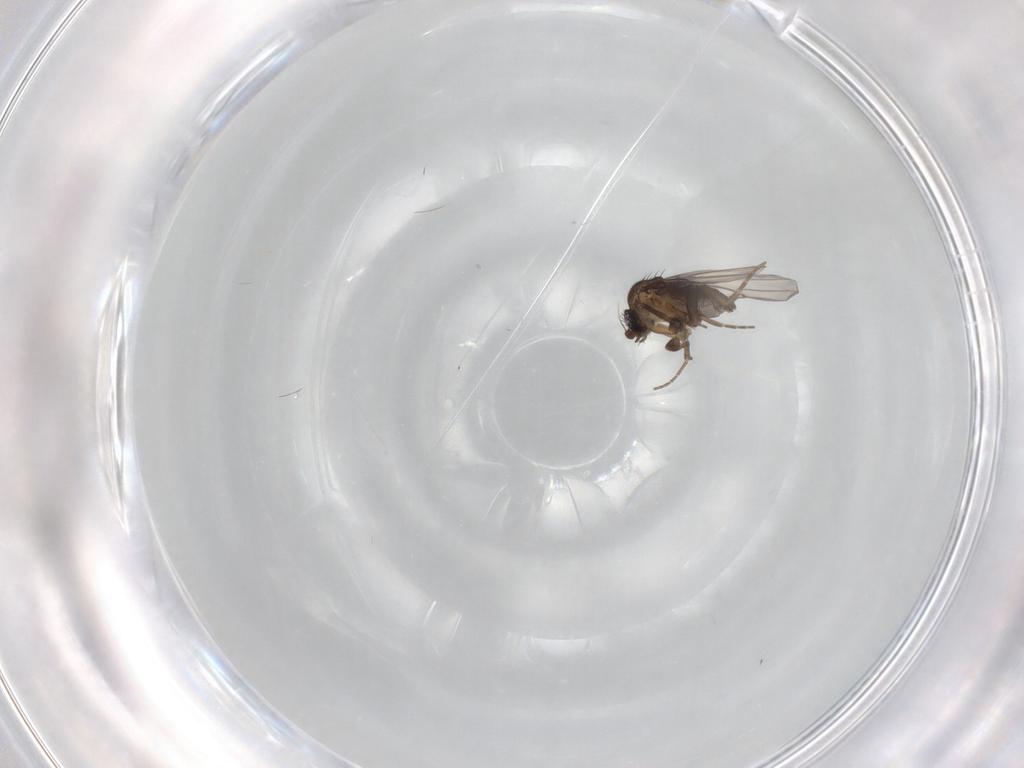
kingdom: Animalia
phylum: Arthropoda
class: Insecta
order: Diptera
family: Phoridae
